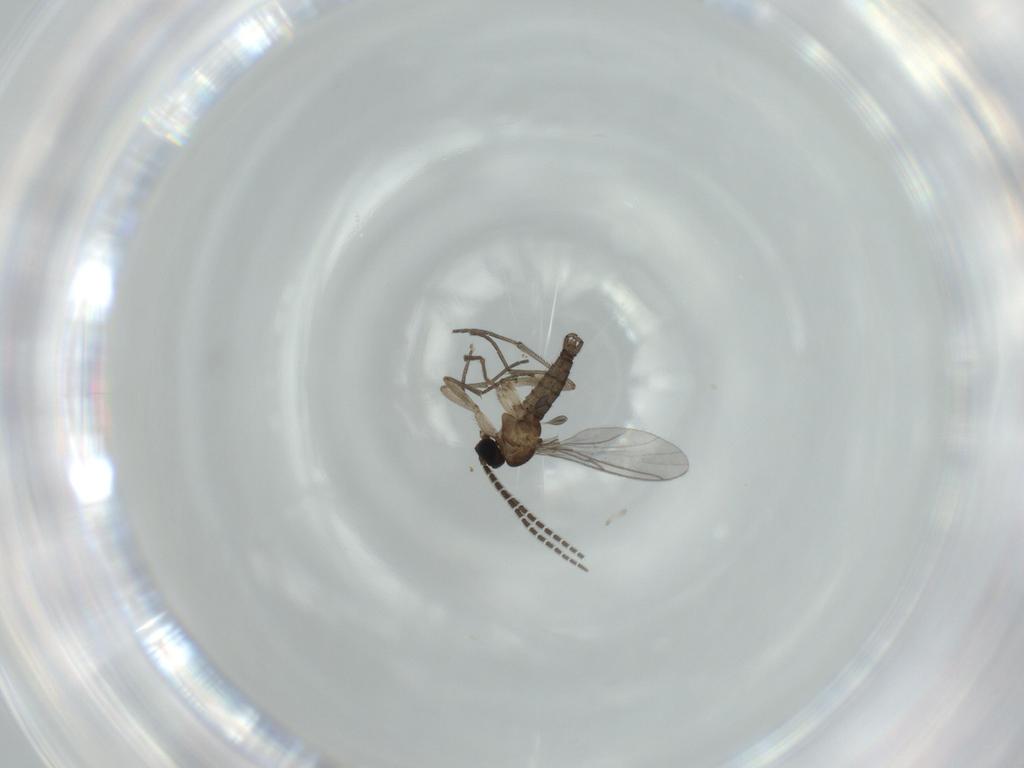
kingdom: Animalia
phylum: Arthropoda
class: Insecta
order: Diptera
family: Sciaridae
